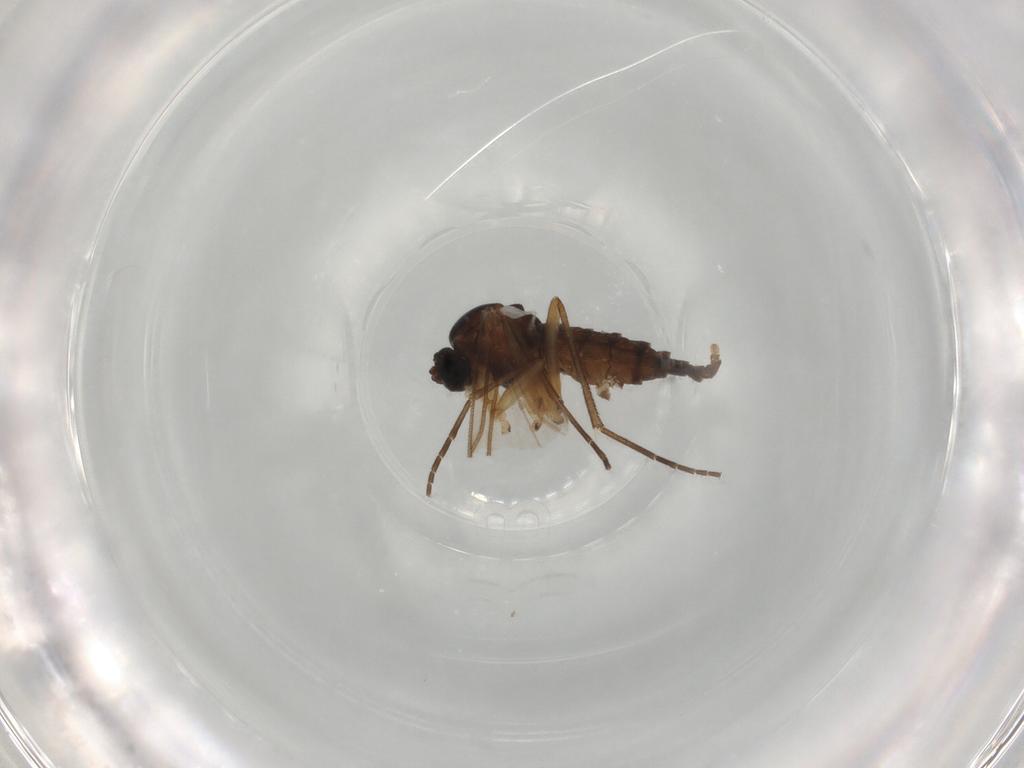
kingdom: Animalia
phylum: Arthropoda
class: Insecta
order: Diptera
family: Sciaridae
